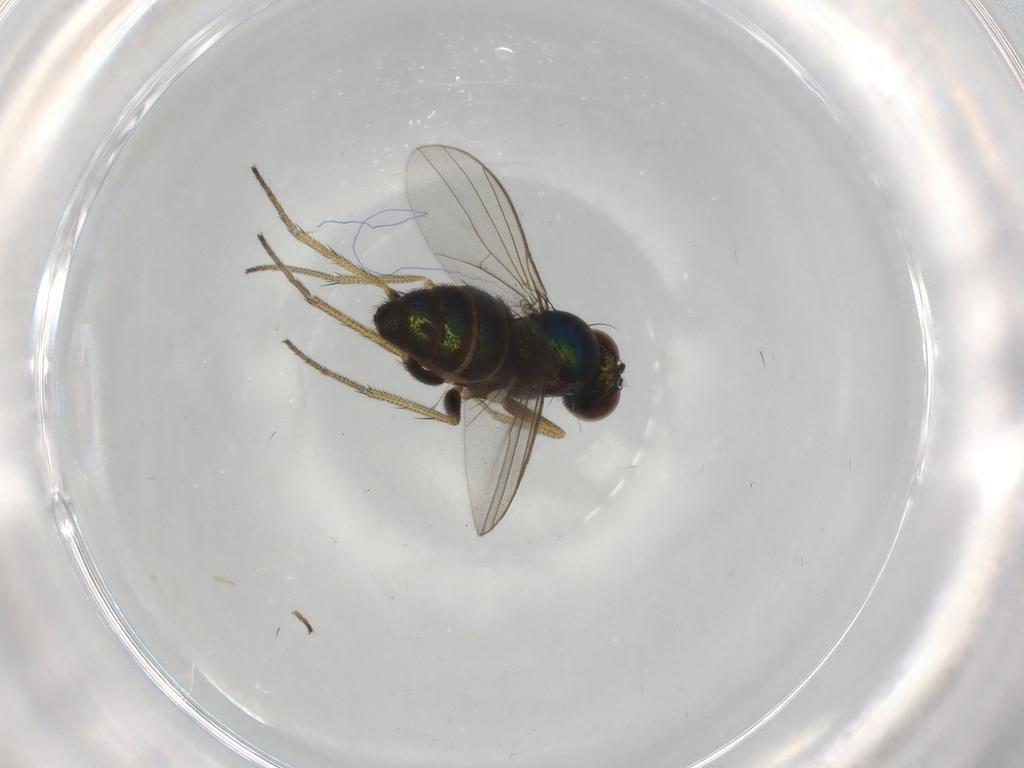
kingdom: Animalia
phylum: Arthropoda
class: Insecta
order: Diptera
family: Dolichopodidae
